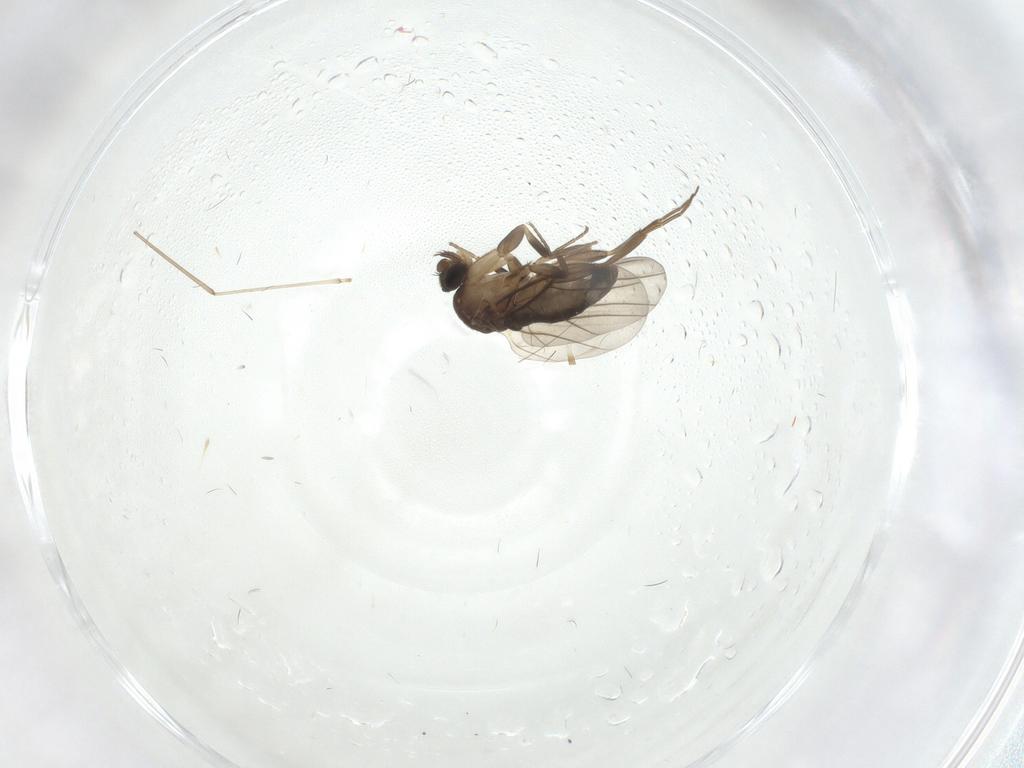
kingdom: Animalia
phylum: Arthropoda
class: Insecta
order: Diptera
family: Phoridae
